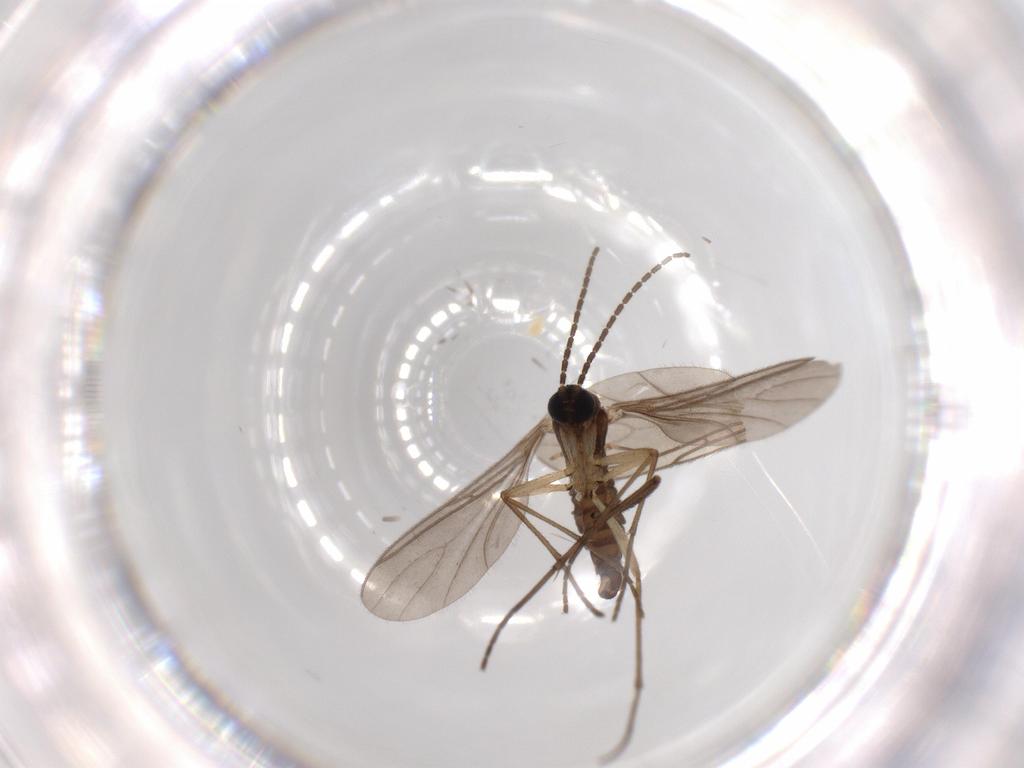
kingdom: Animalia
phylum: Arthropoda
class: Insecta
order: Diptera
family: Sciaridae
